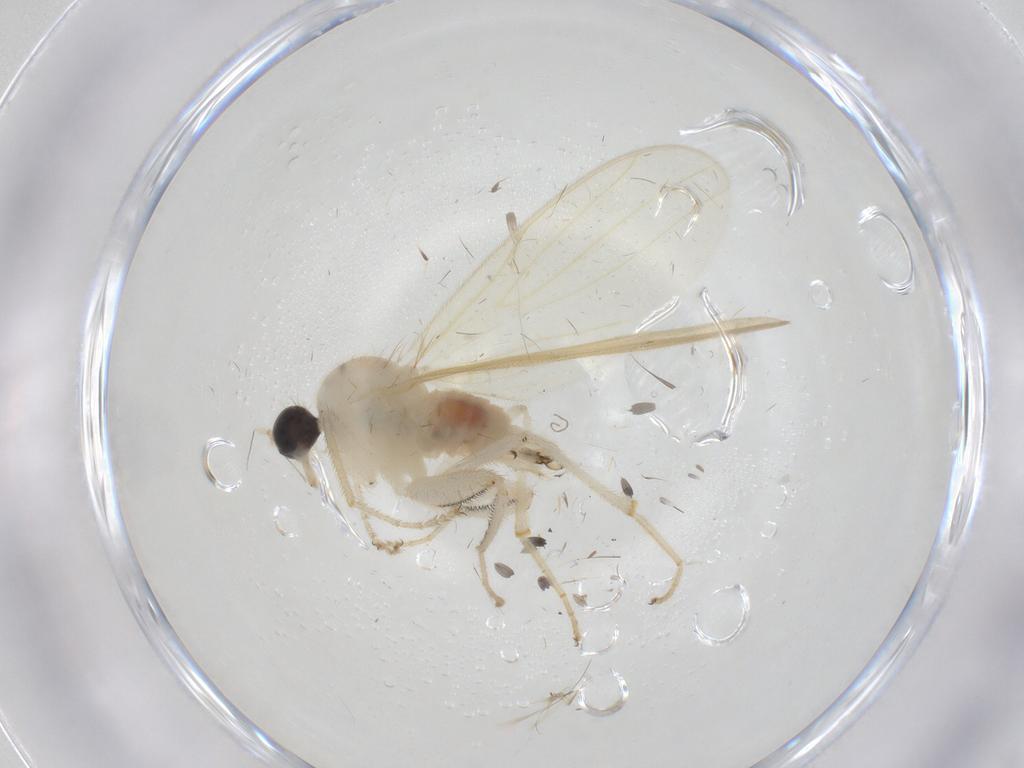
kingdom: Animalia
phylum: Arthropoda
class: Insecta
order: Diptera
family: Hybotidae
